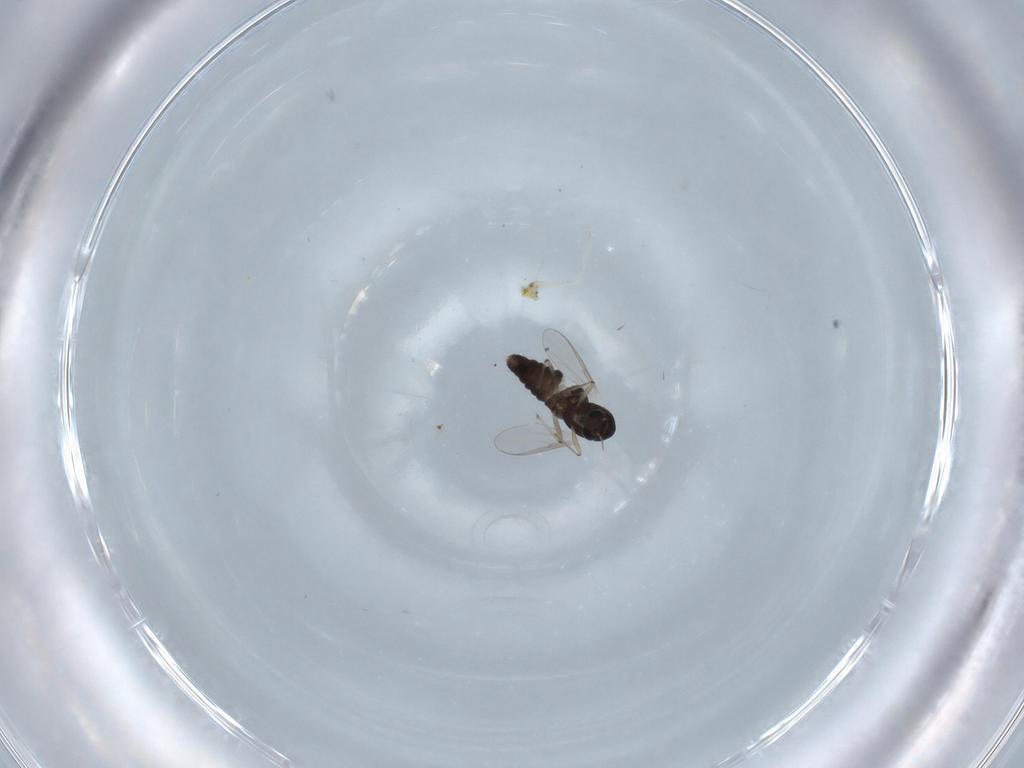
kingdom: Animalia
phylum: Arthropoda
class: Insecta
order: Diptera
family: Chironomidae
